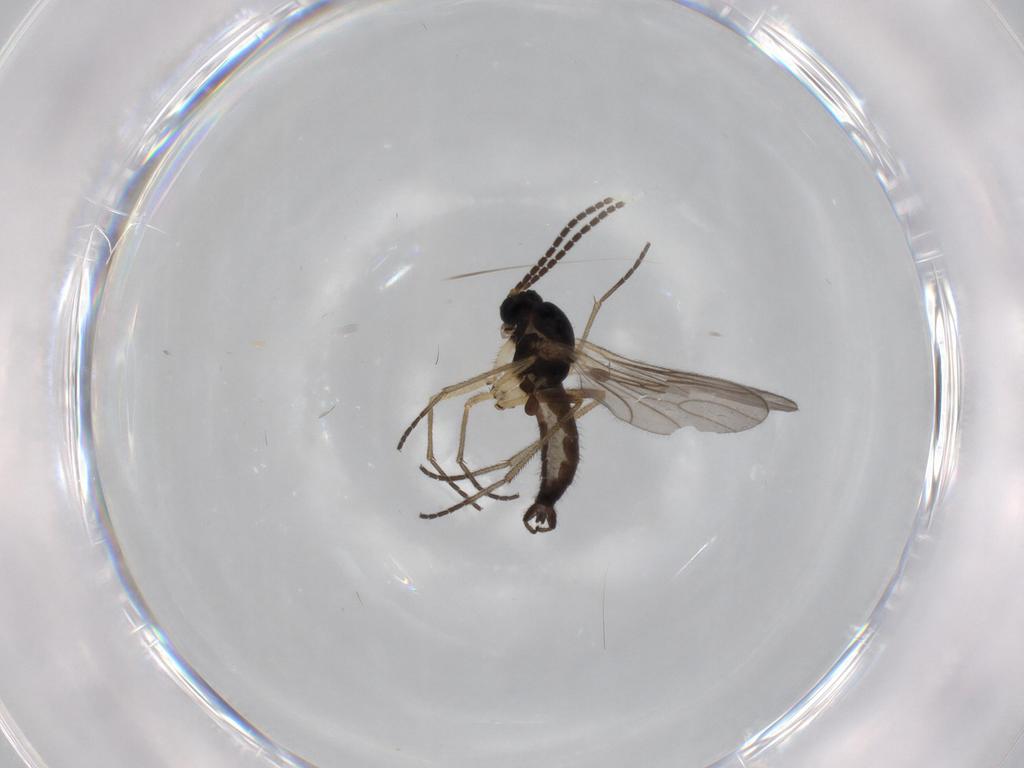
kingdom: Animalia
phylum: Arthropoda
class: Insecta
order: Diptera
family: Sciaridae
